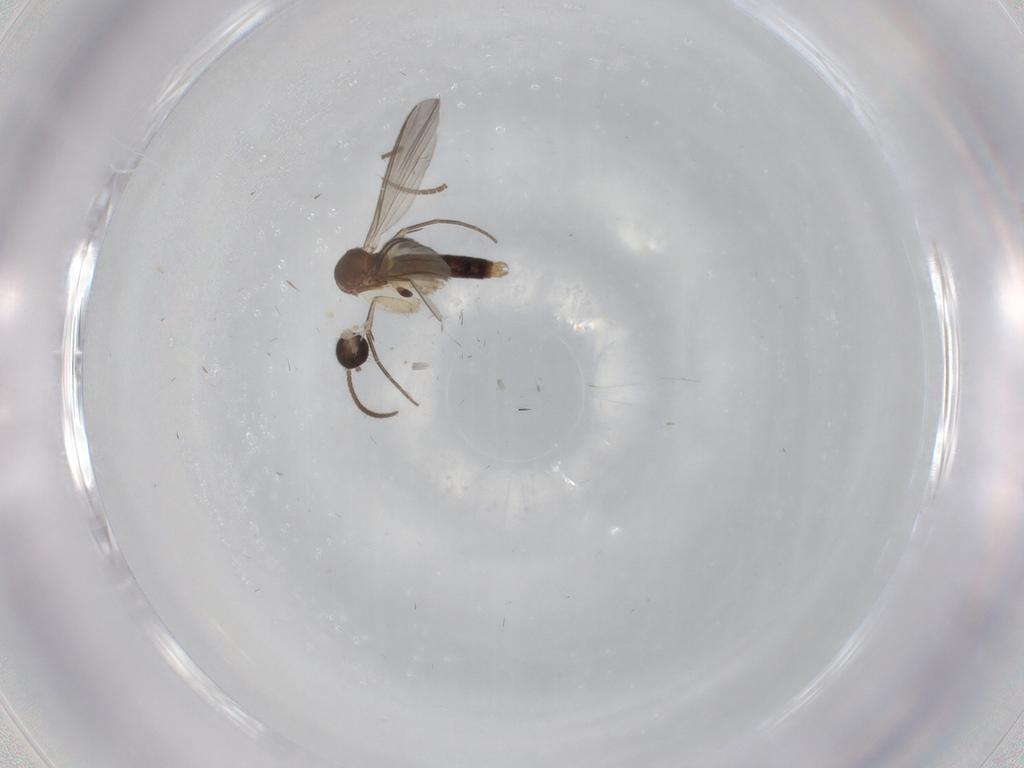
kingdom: Animalia
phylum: Arthropoda
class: Insecta
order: Diptera
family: Mycetophilidae
